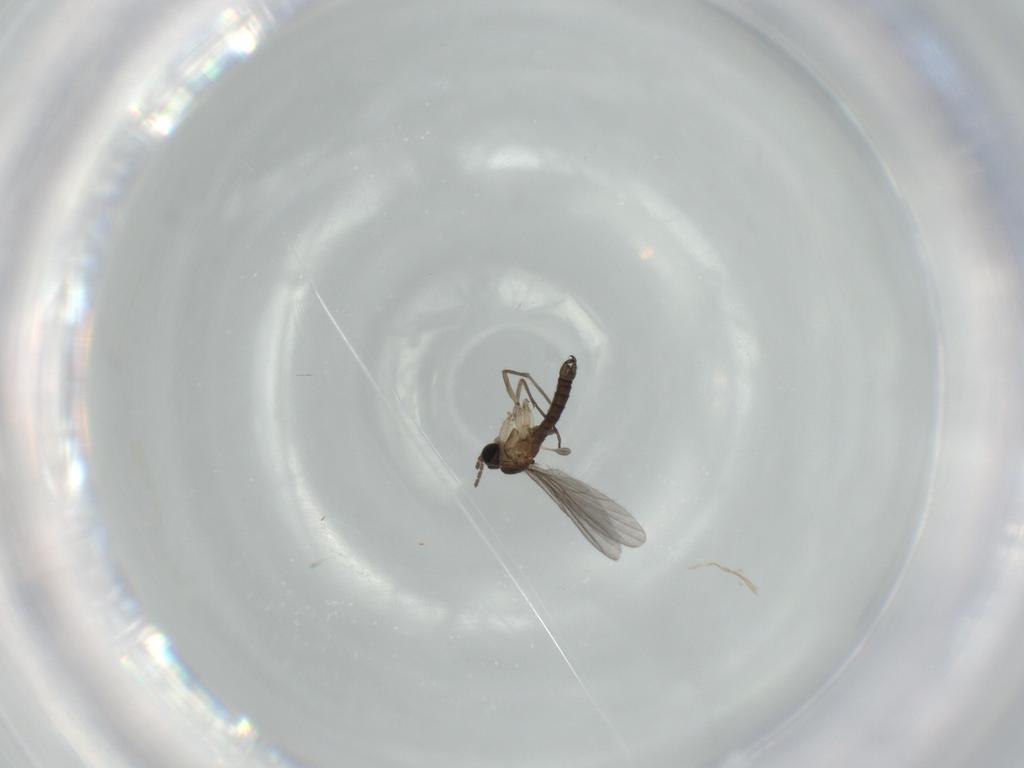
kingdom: Animalia
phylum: Arthropoda
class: Insecta
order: Diptera
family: Sciaridae
